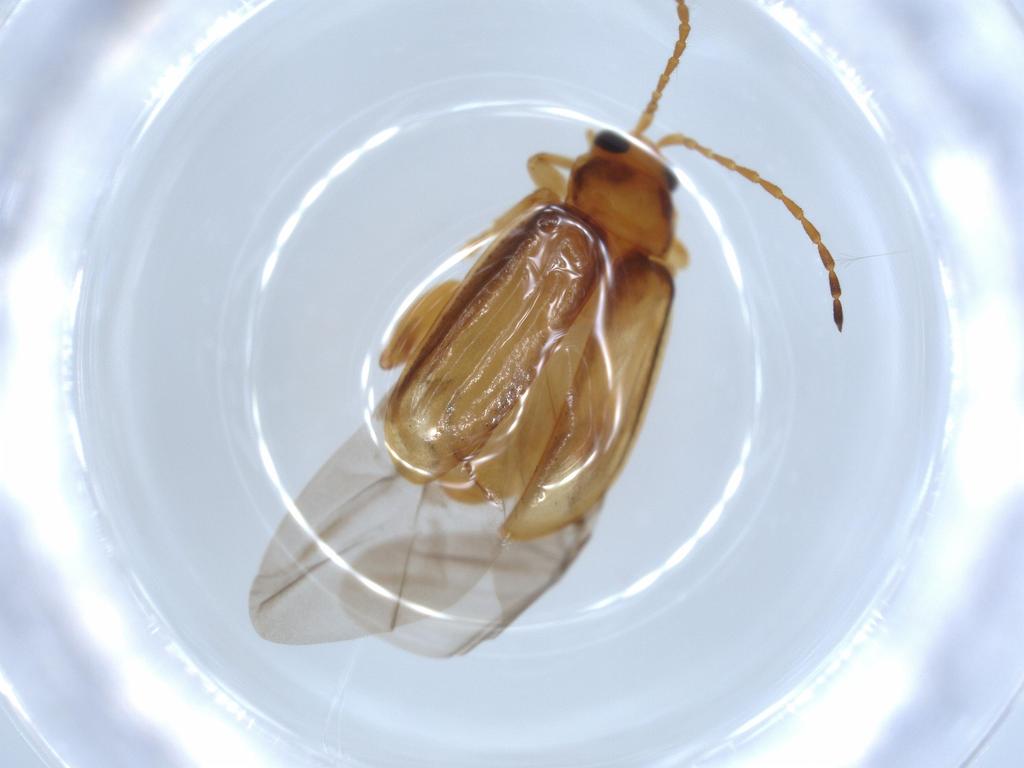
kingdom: Animalia
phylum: Arthropoda
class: Insecta
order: Coleoptera
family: Chrysomelidae
